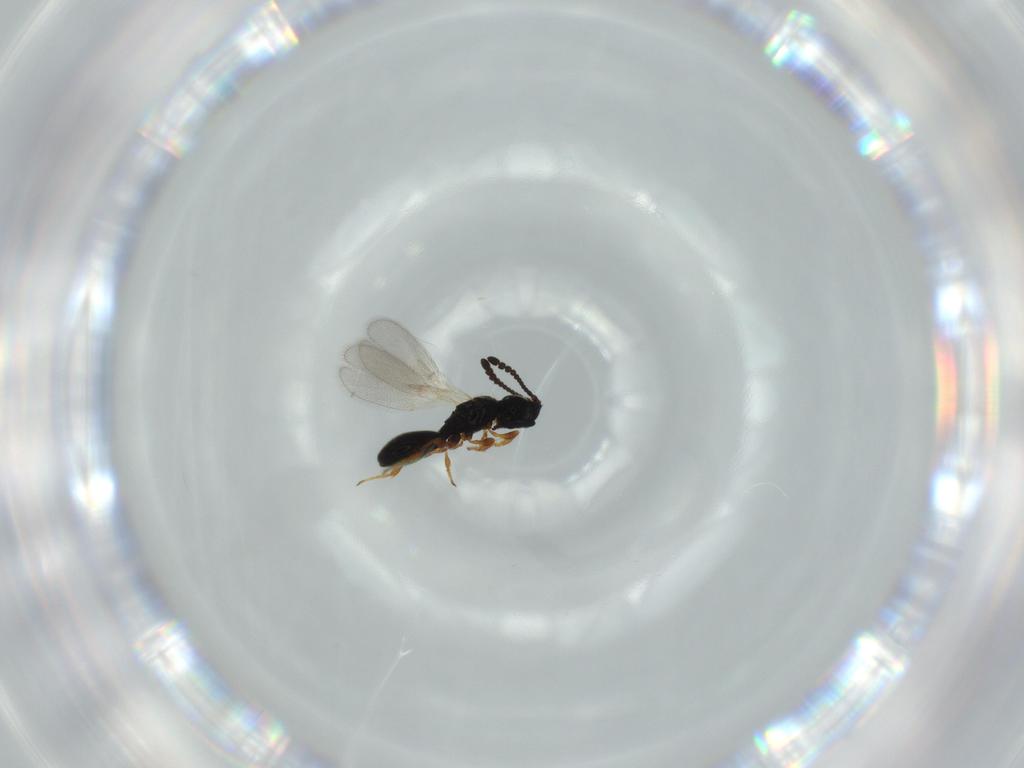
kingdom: Animalia
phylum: Arthropoda
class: Insecta
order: Hymenoptera
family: Diapriidae
